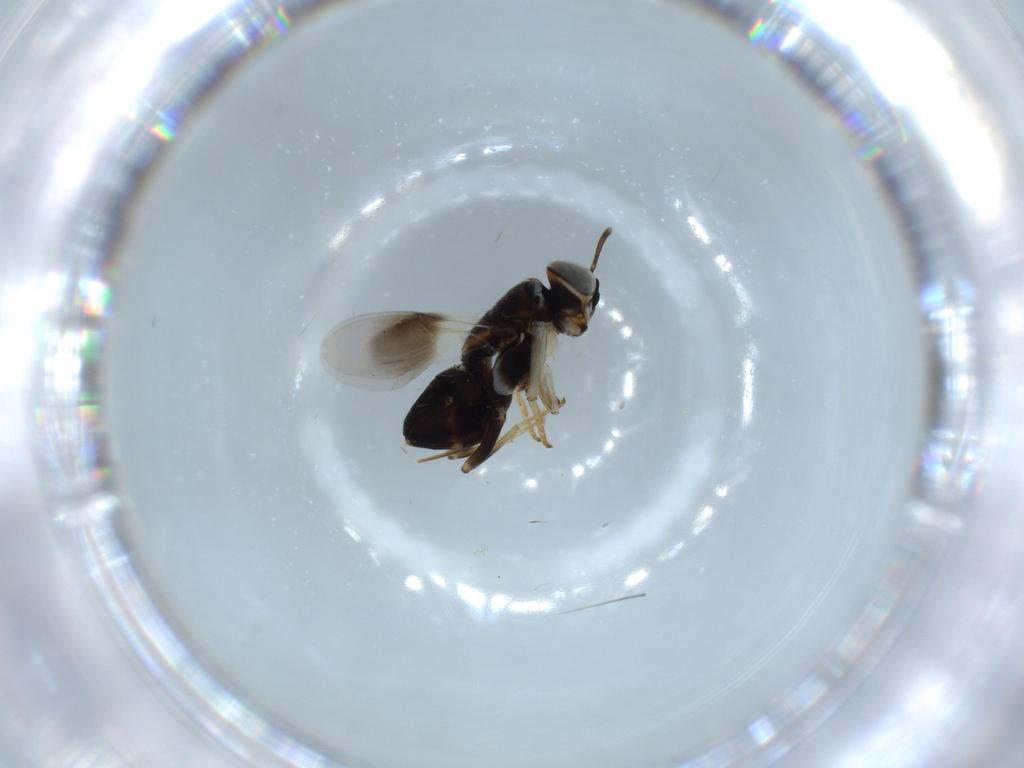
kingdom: Animalia
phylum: Arthropoda
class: Insecta
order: Hymenoptera
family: Pompilidae
